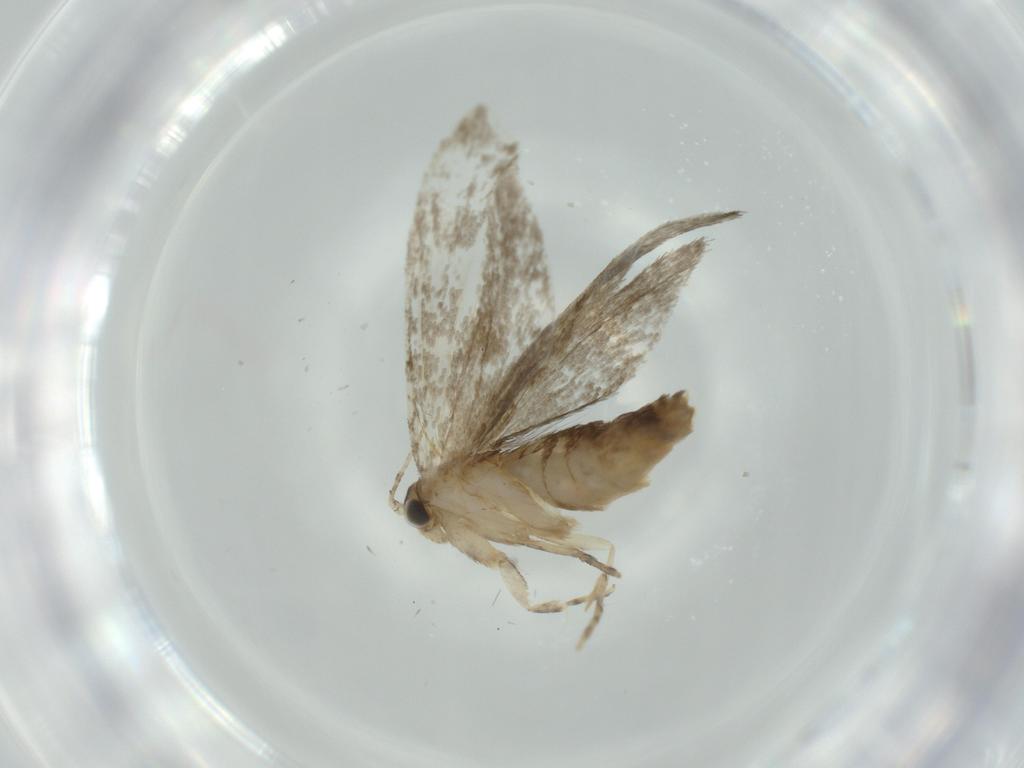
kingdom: Animalia
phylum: Arthropoda
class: Insecta
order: Lepidoptera
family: Tineidae
